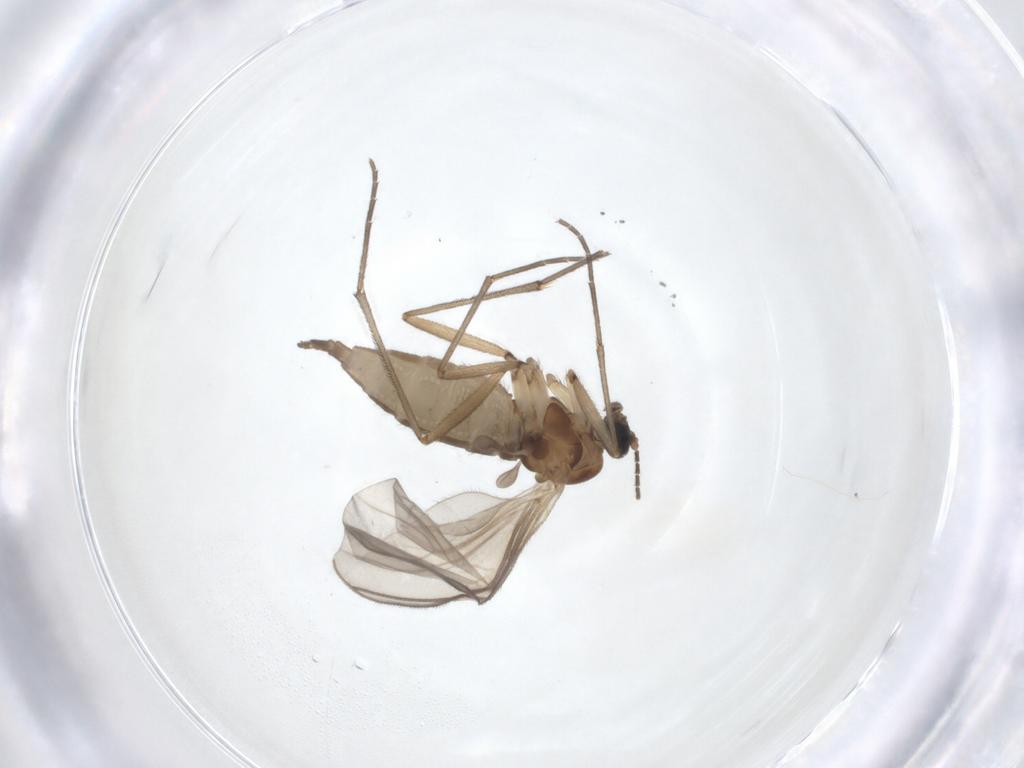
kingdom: Animalia
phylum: Arthropoda
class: Insecta
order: Diptera
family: Sciaridae
